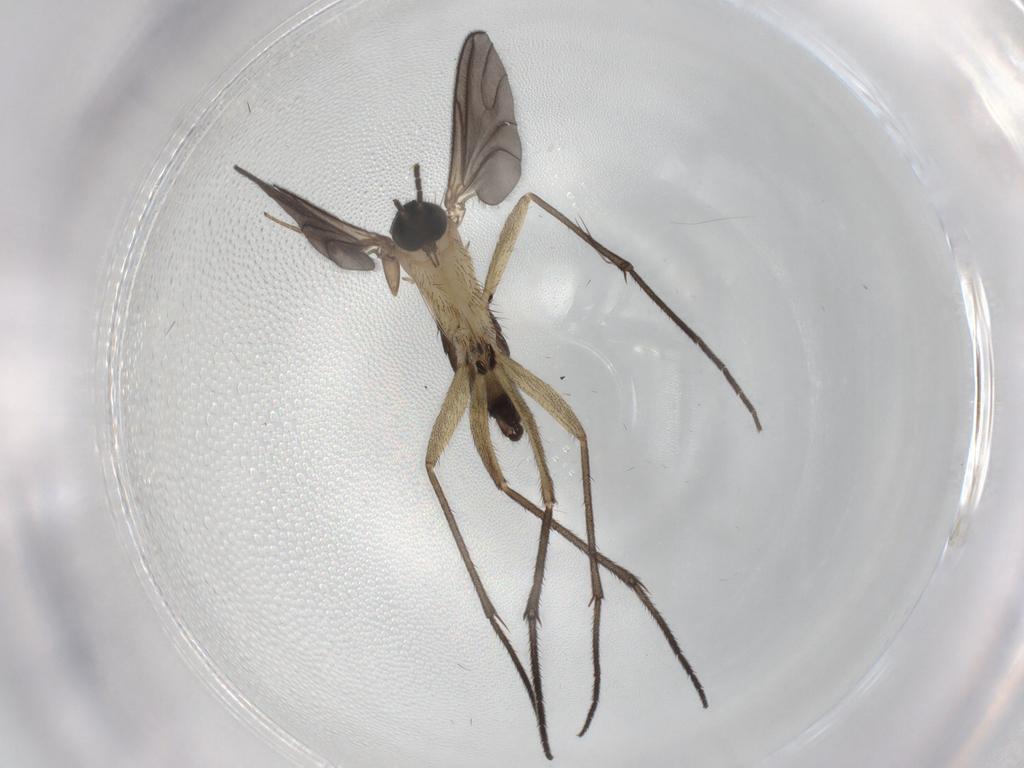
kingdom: Animalia
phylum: Arthropoda
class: Insecta
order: Diptera
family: Sciaridae
